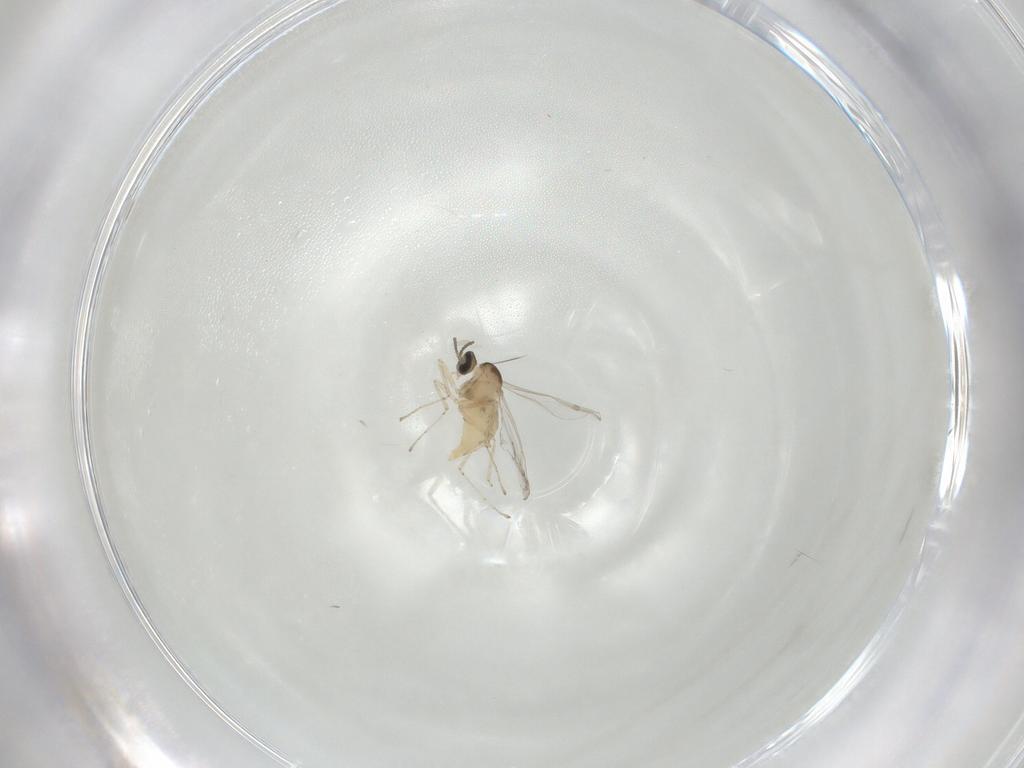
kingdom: Animalia
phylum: Arthropoda
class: Insecta
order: Diptera
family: Cecidomyiidae
